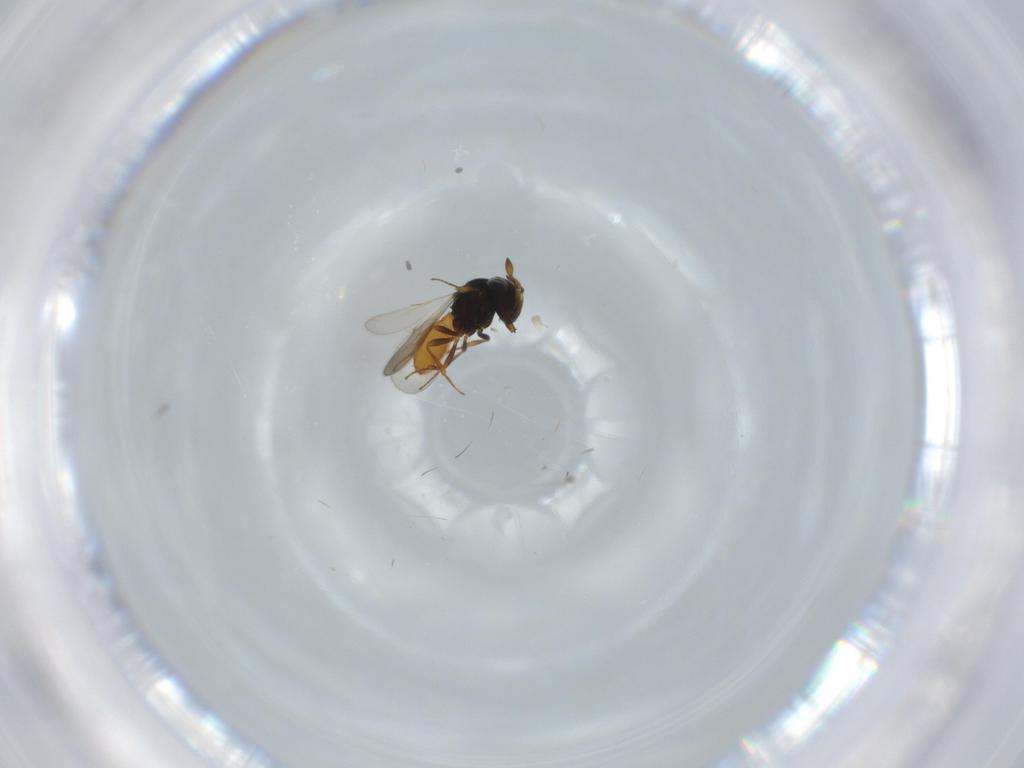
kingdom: Animalia
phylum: Arthropoda
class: Insecta
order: Hymenoptera
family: Scelionidae
